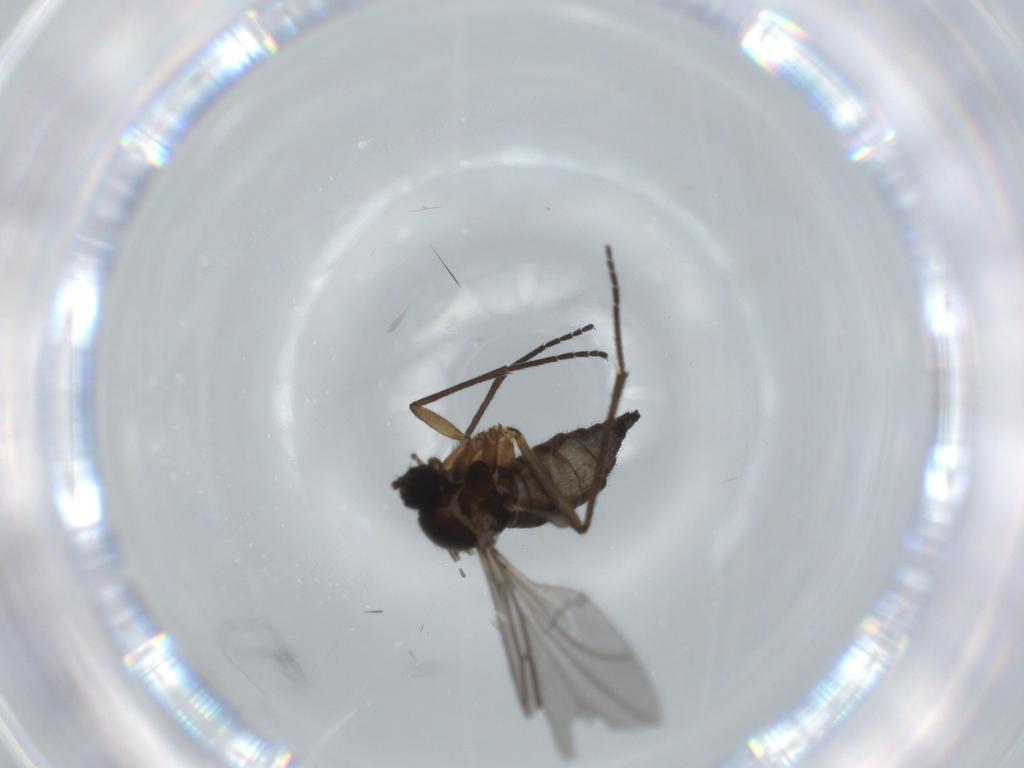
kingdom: Animalia
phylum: Arthropoda
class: Insecta
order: Diptera
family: Sciaridae
